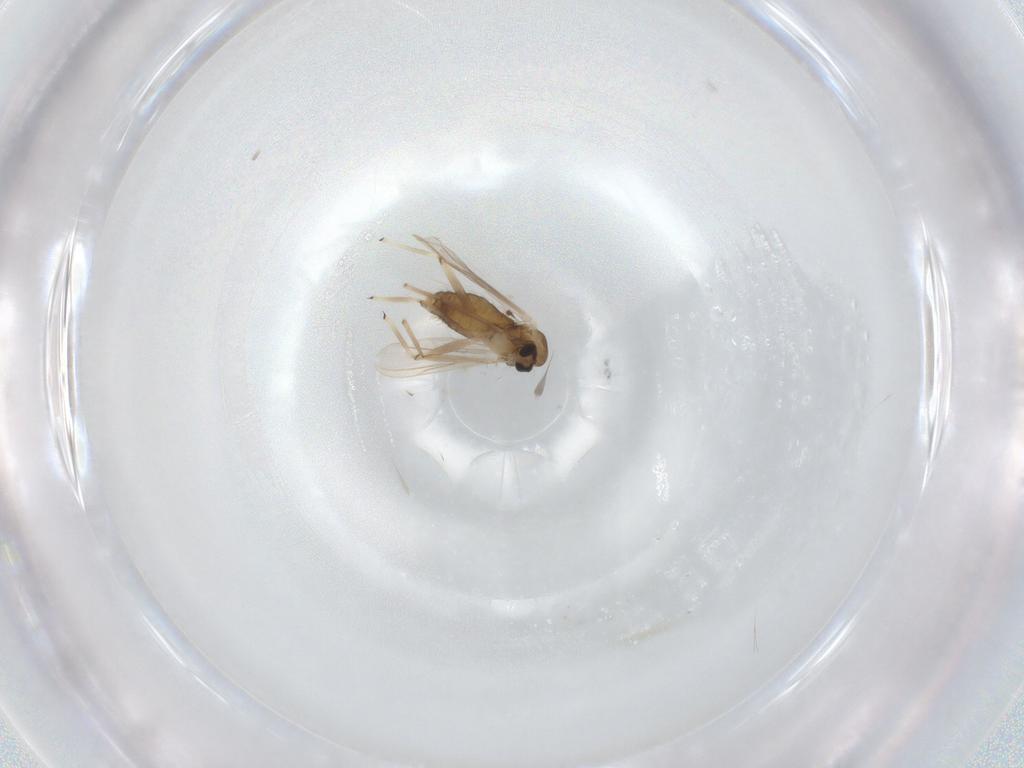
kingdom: Animalia
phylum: Arthropoda
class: Insecta
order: Diptera
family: Chironomidae
